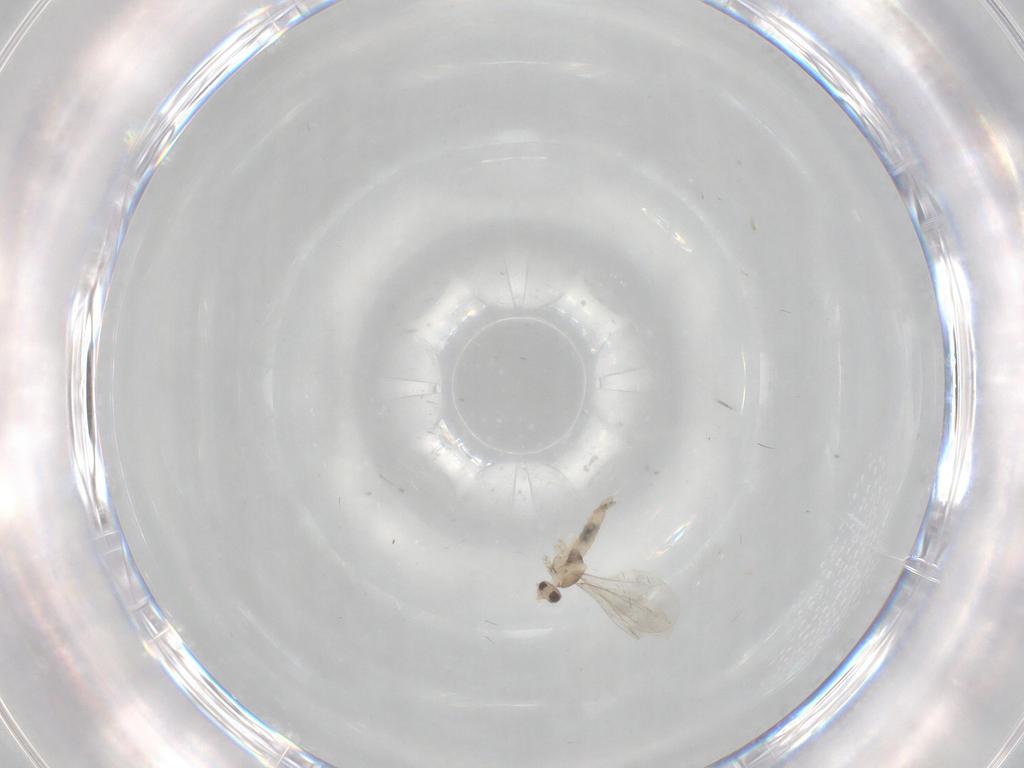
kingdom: Animalia
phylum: Arthropoda
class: Insecta
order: Diptera
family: Cecidomyiidae
